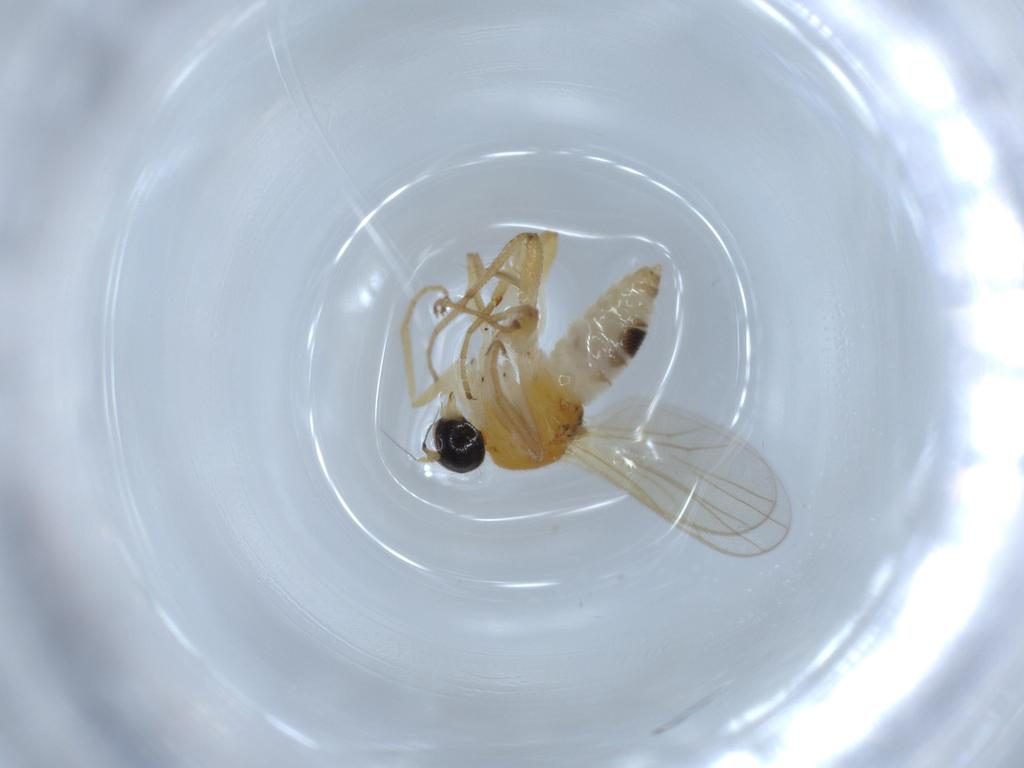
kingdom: Animalia
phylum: Arthropoda
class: Insecta
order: Diptera
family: Hybotidae
